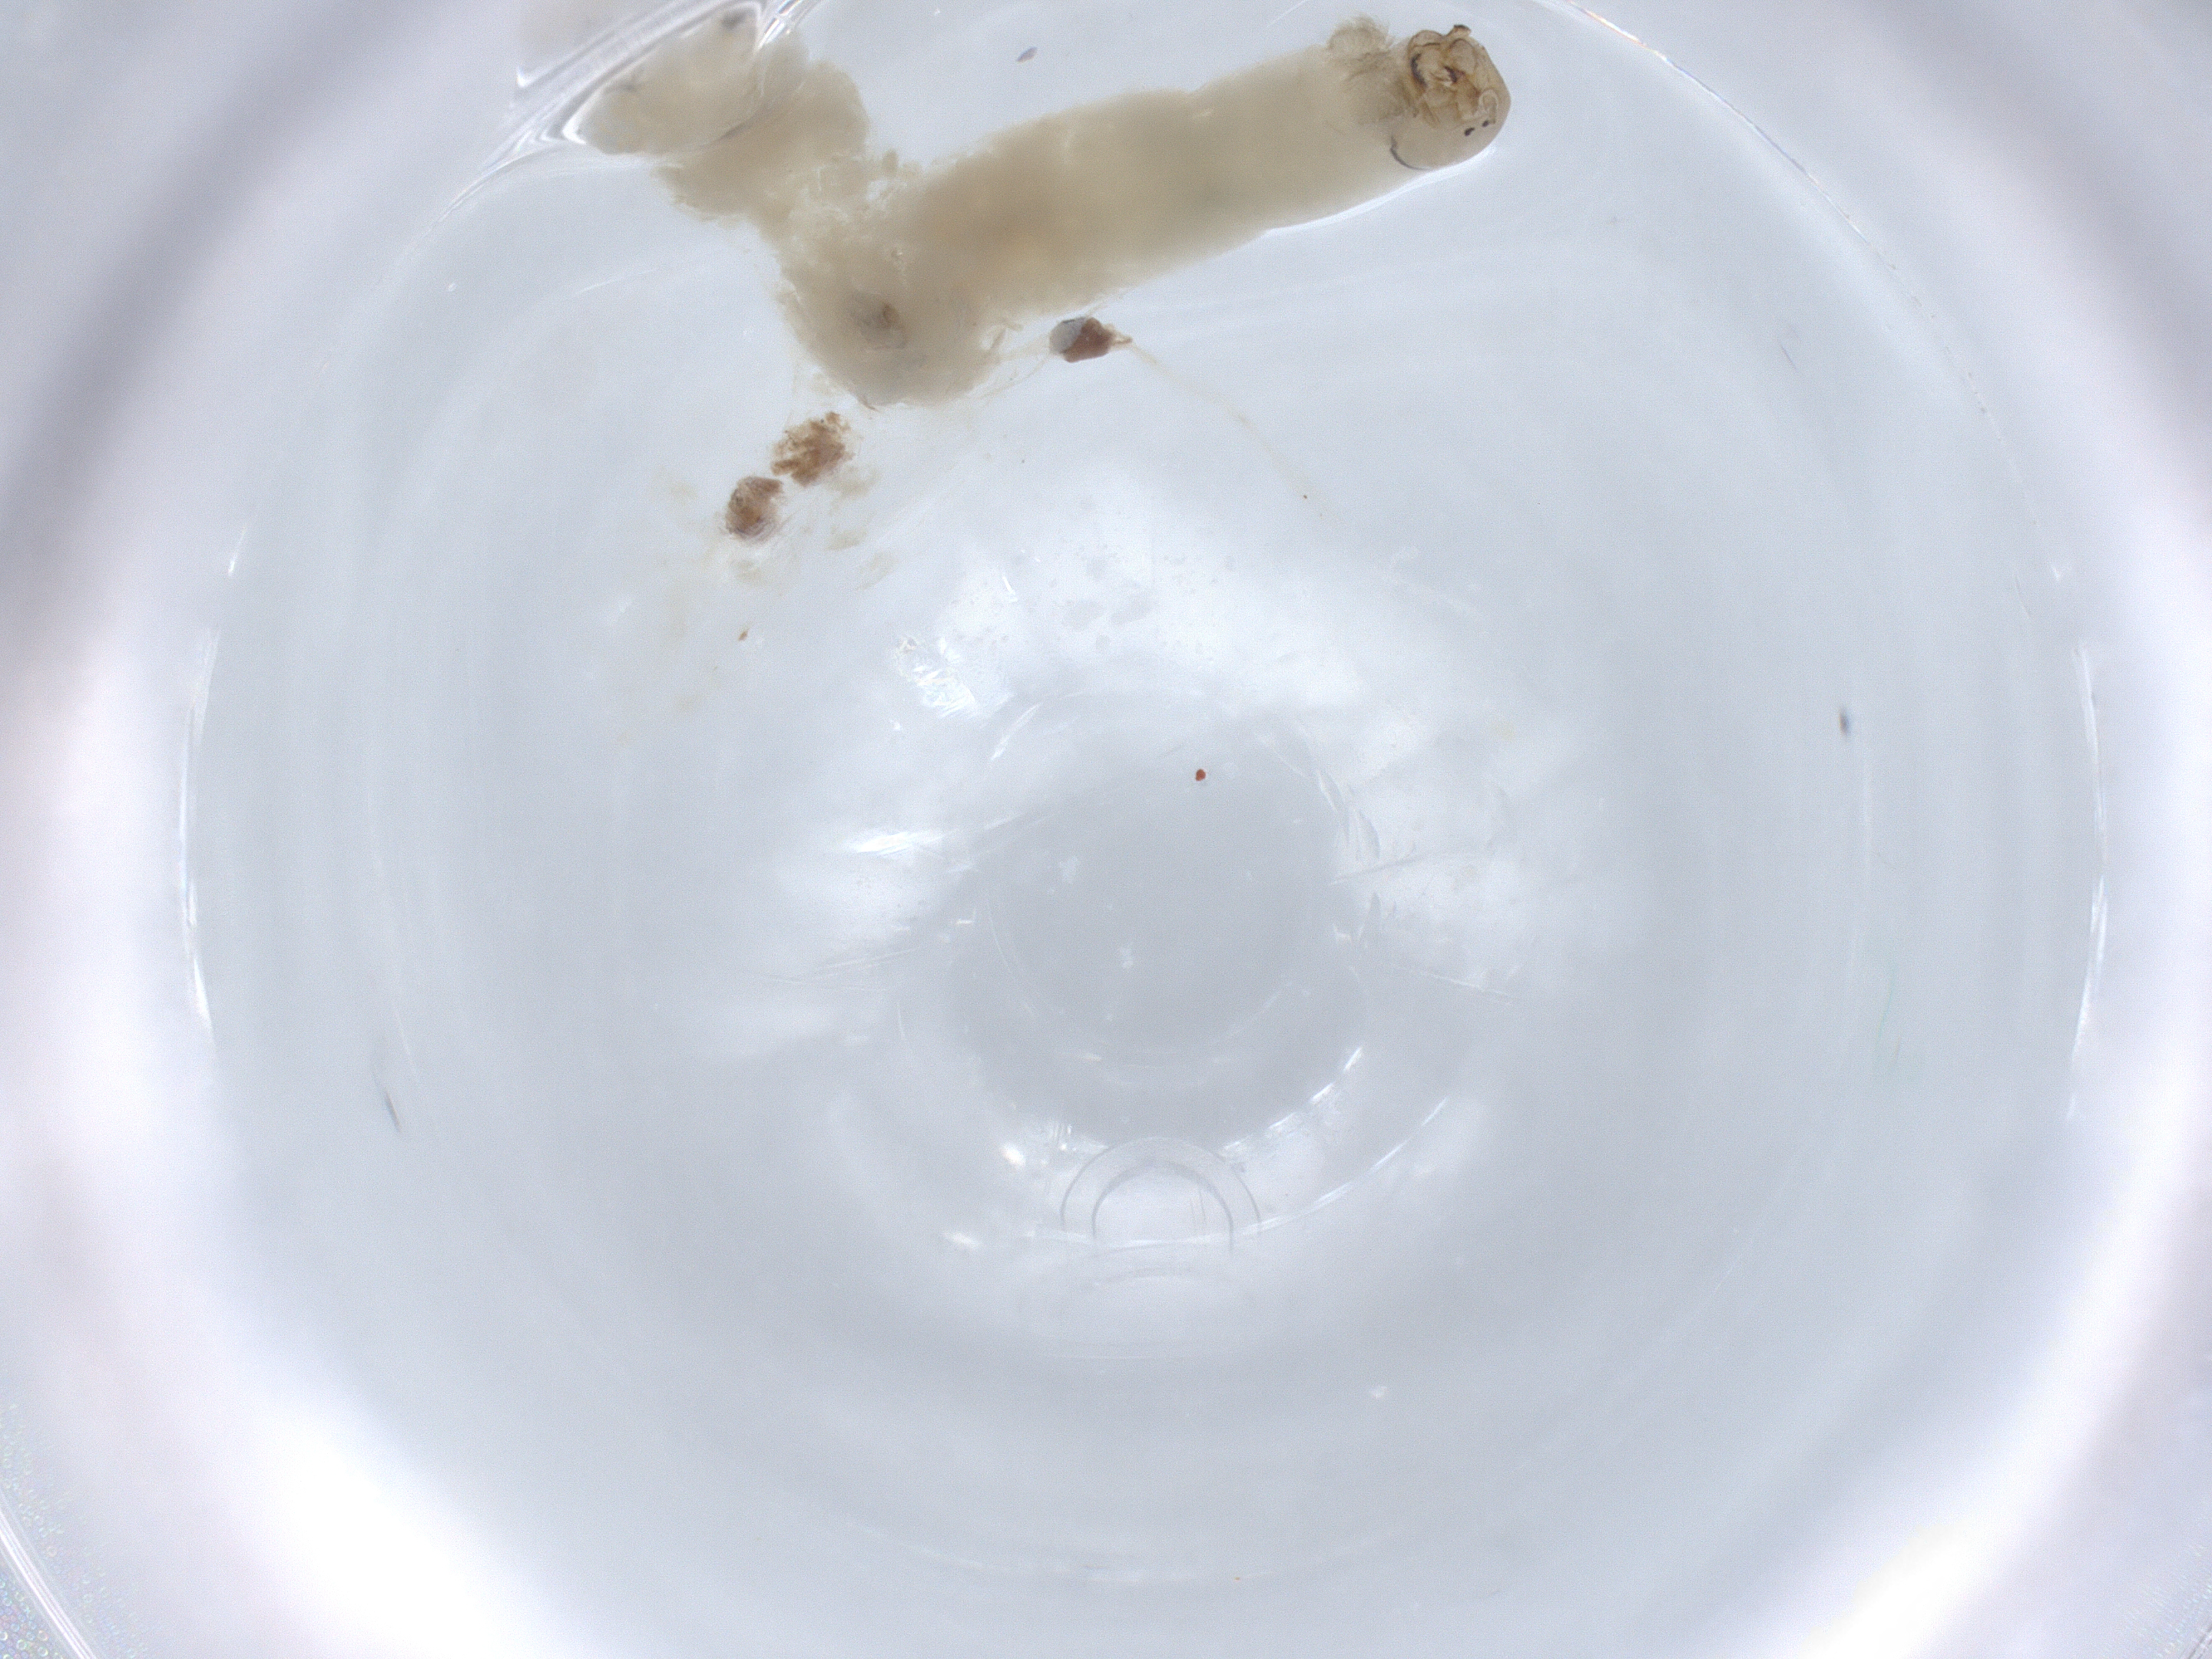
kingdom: Animalia
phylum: Arthropoda
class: Insecta
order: Diptera
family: Chironomidae
